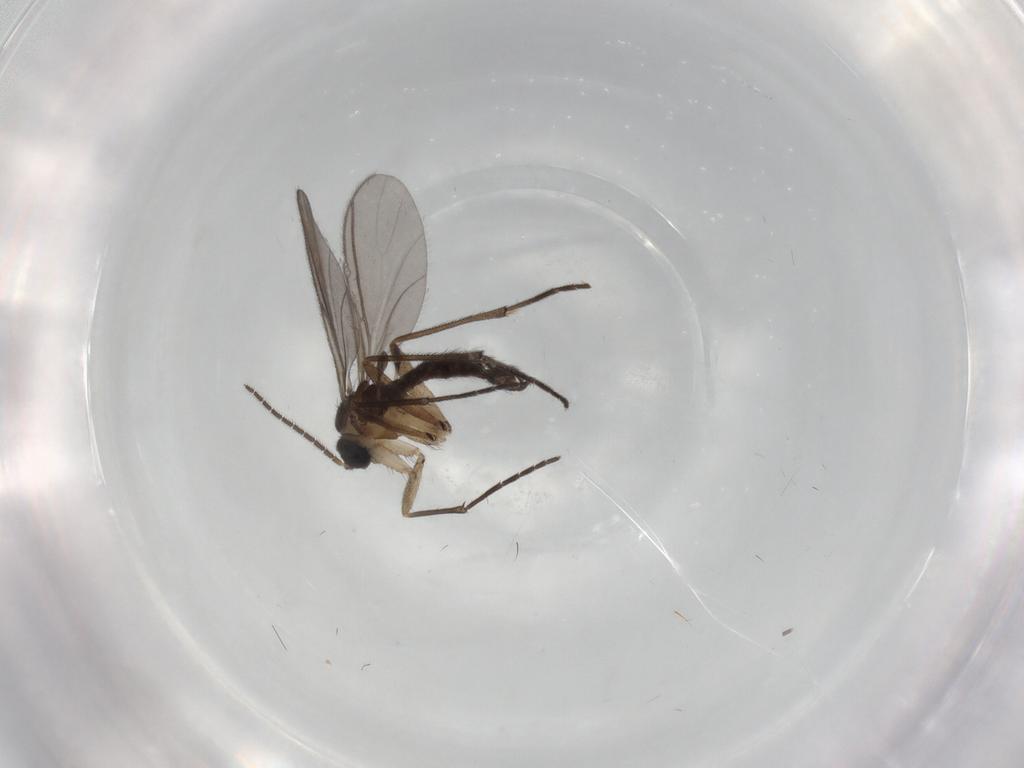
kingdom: Animalia
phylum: Arthropoda
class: Insecta
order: Diptera
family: Sciaridae
